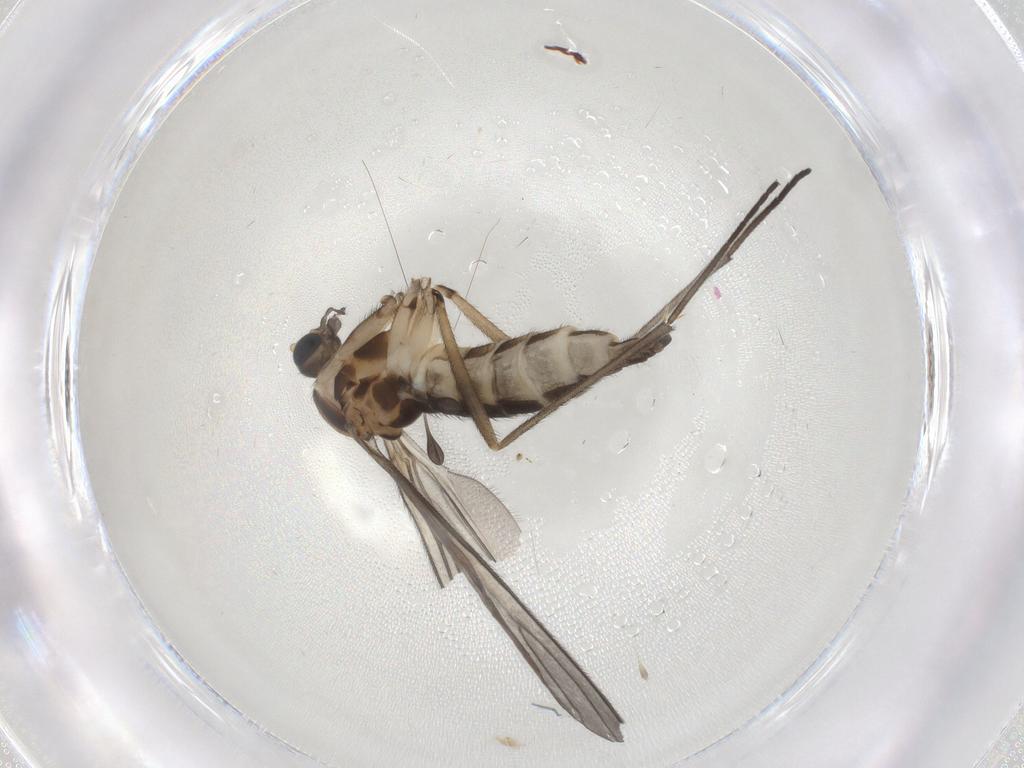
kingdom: Animalia
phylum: Arthropoda
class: Insecta
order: Diptera
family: Sciaridae
